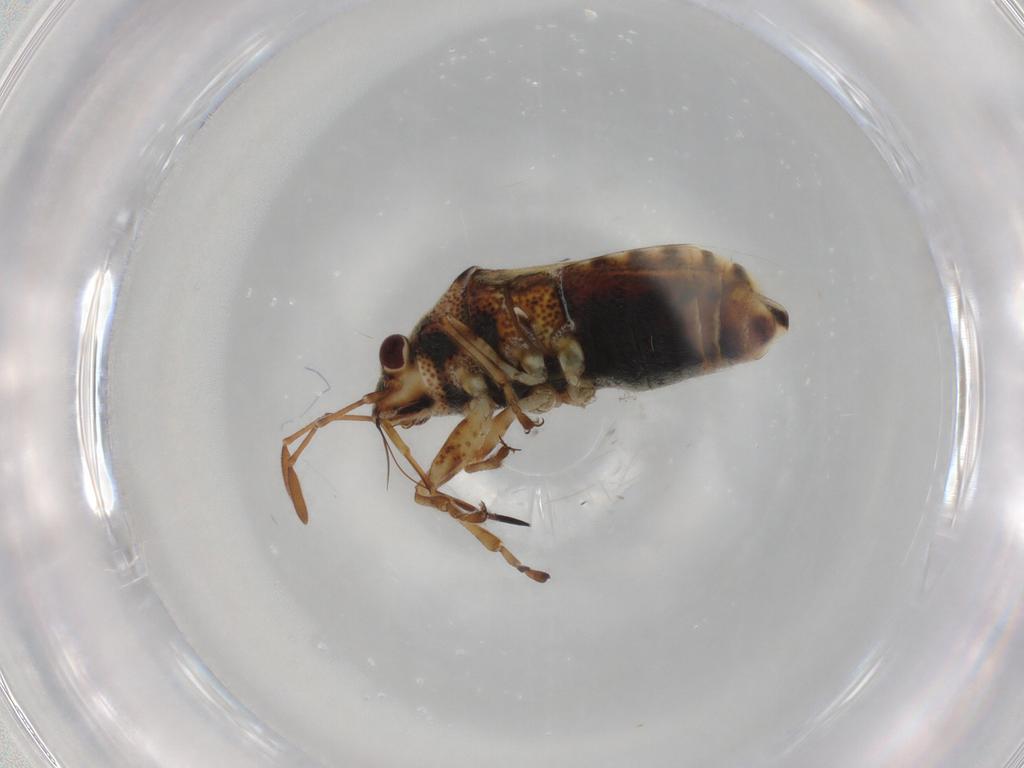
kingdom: Animalia
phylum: Arthropoda
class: Insecta
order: Hemiptera
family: Lygaeidae
